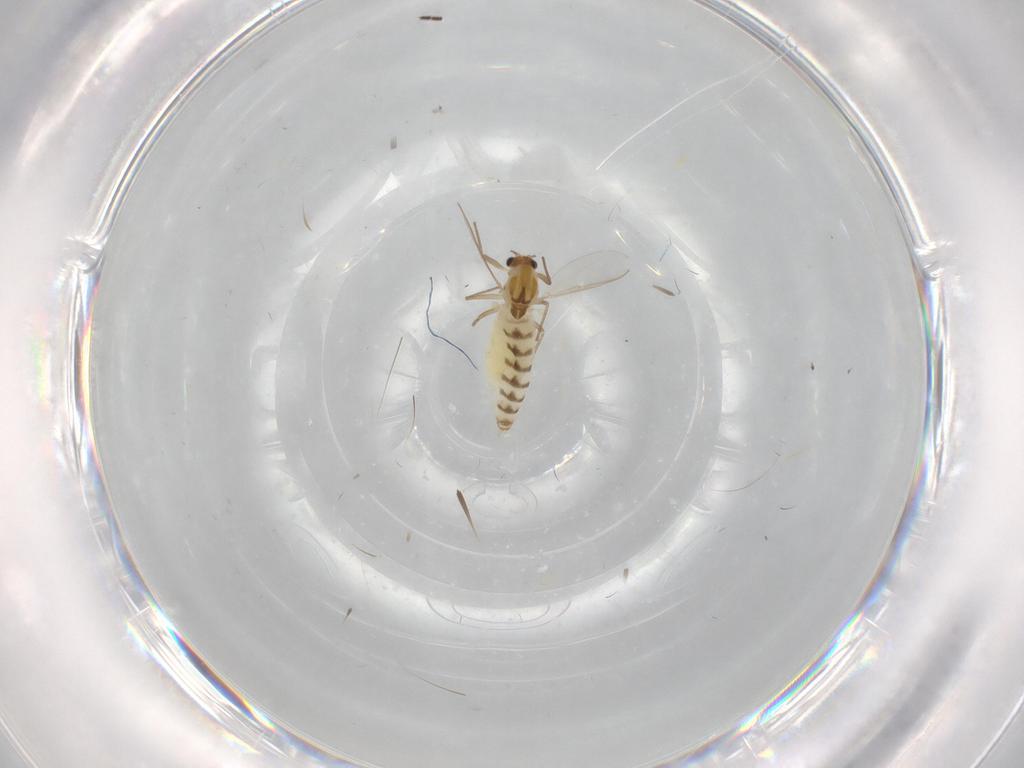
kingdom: Animalia
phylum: Arthropoda
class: Insecta
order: Diptera
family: Chironomidae
